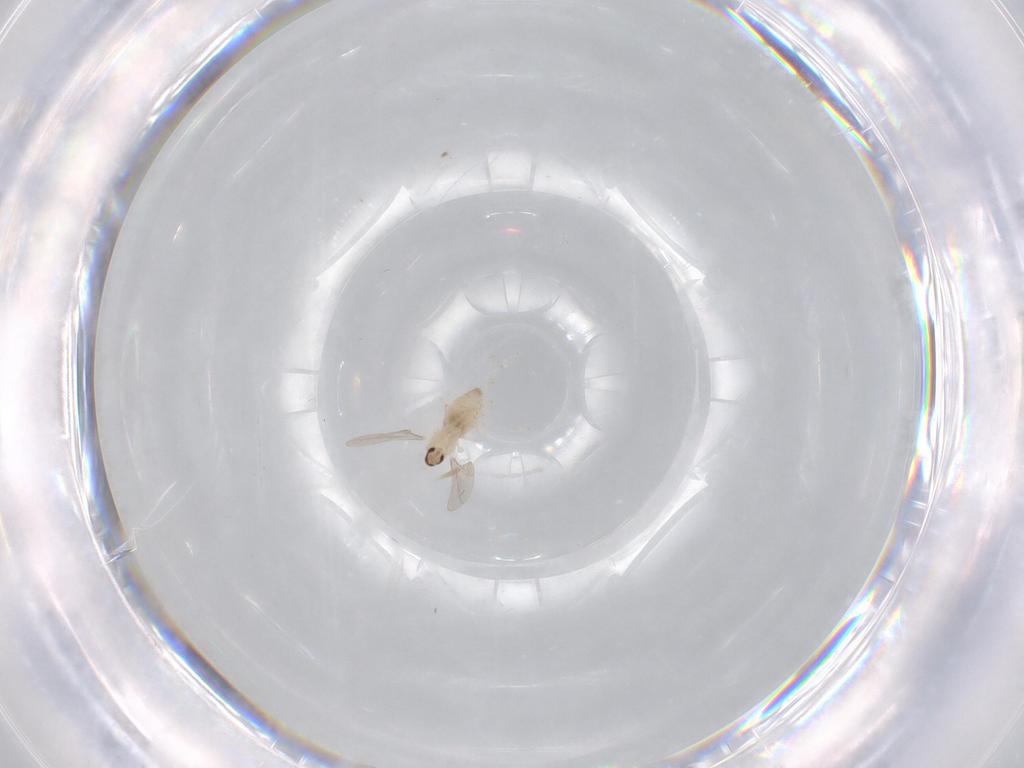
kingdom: Animalia
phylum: Arthropoda
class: Insecta
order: Diptera
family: Cecidomyiidae
